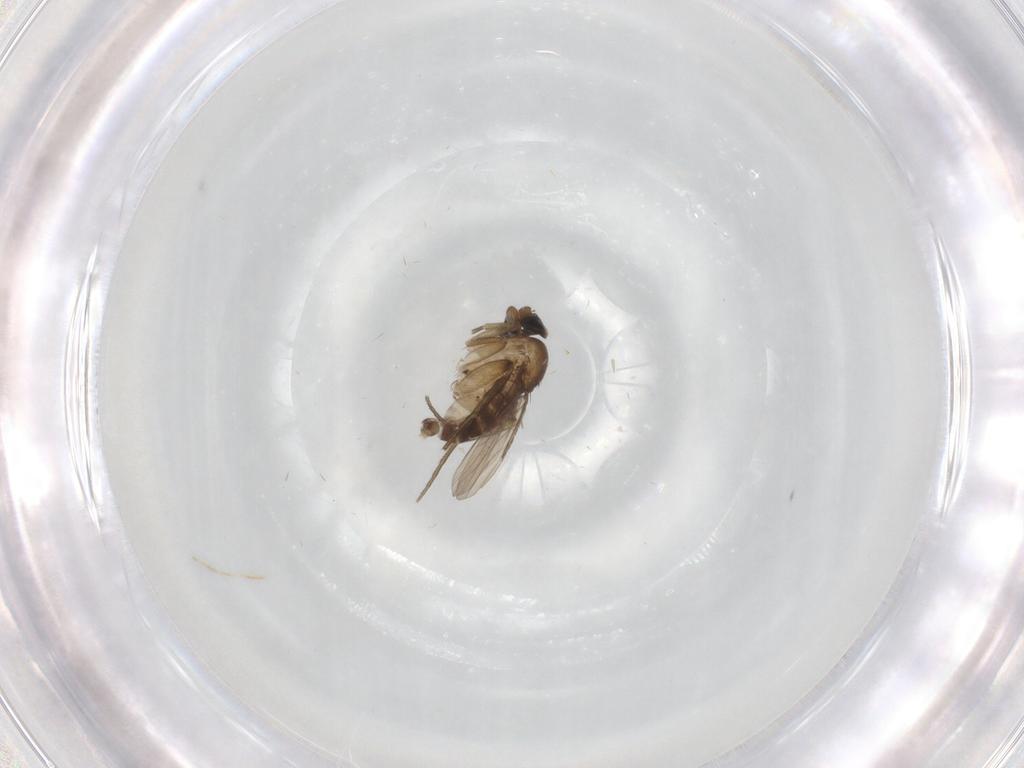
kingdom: Animalia
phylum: Arthropoda
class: Insecta
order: Diptera
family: Phoridae
